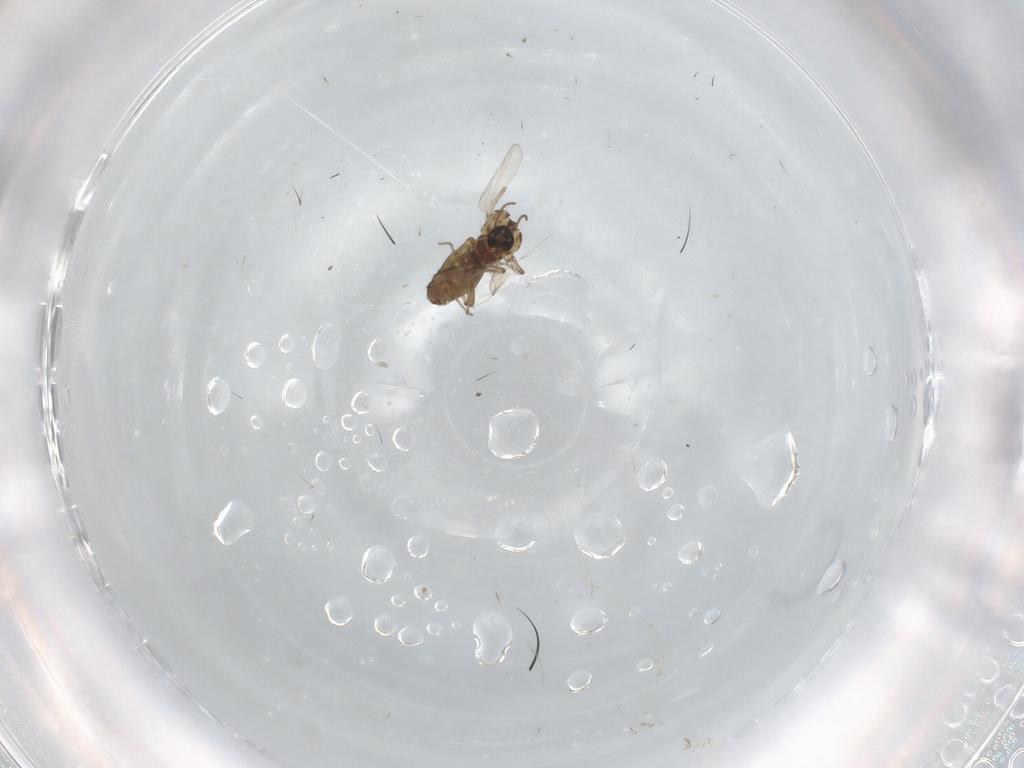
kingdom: Animalia
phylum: Arthropoda
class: Insecta
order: Diptera
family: Ceratopogonidae
